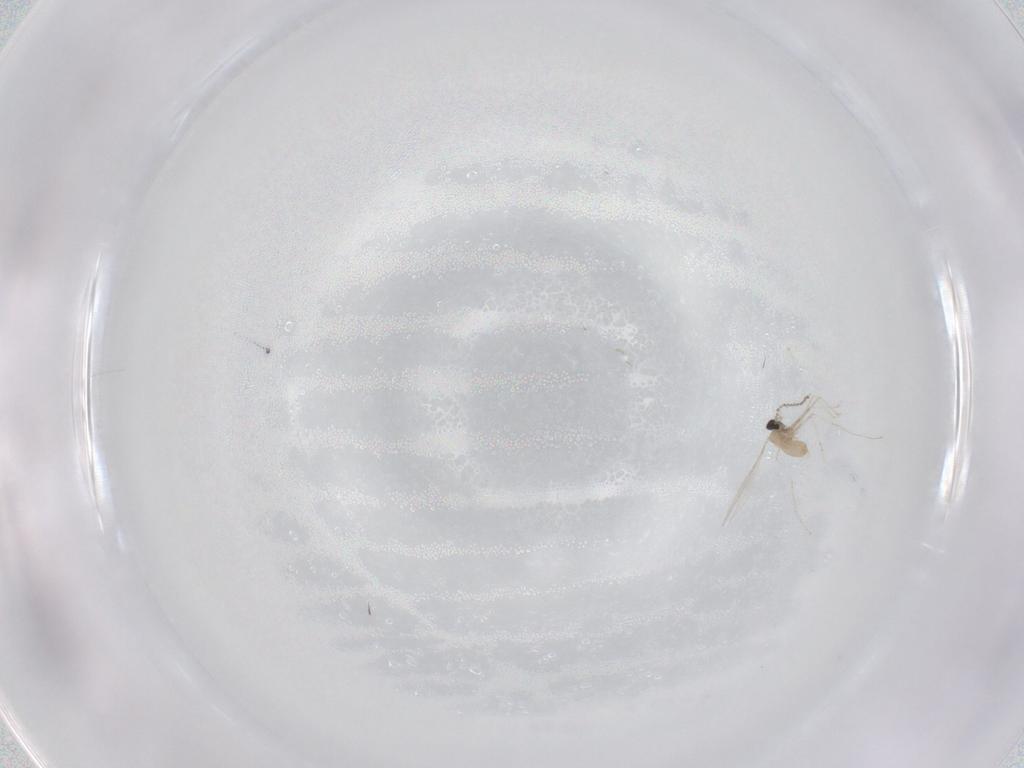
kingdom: Animalia
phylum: Arthropoda
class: Insecta
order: Diptera
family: Cecidomyiidae
